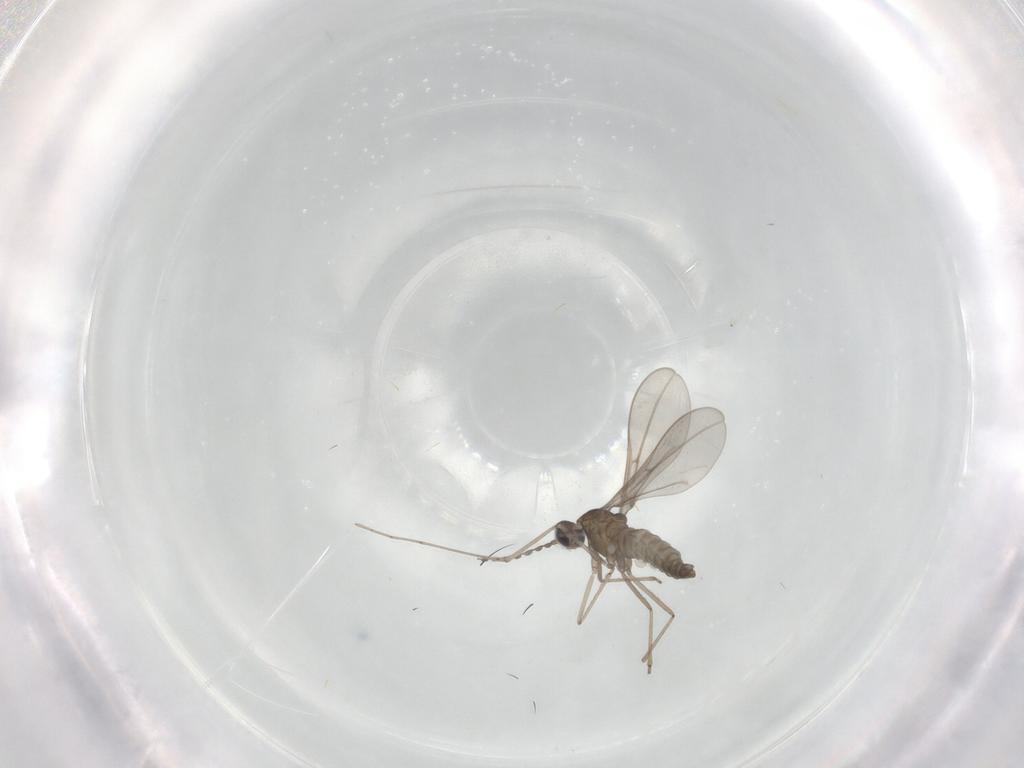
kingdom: Animalia
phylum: Arthropoda
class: Insecta
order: Diptera
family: Cecidomyiidae
